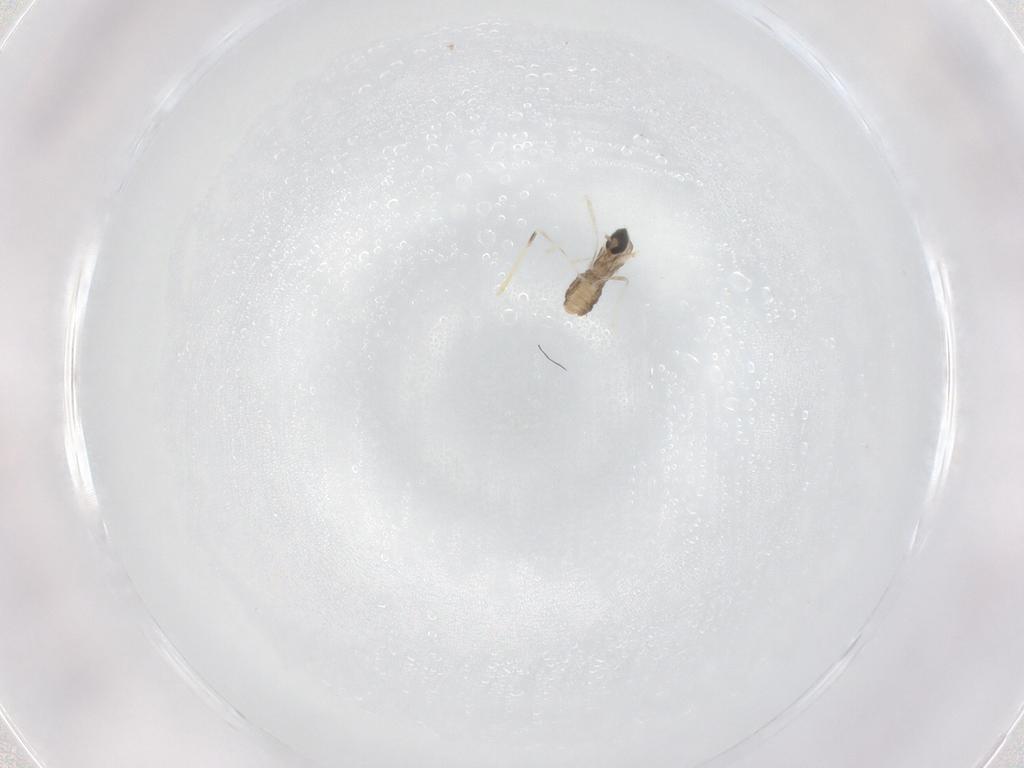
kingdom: Animalia
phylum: Arthropoda
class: Insecta
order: Diptera
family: Cecidomyiidae
